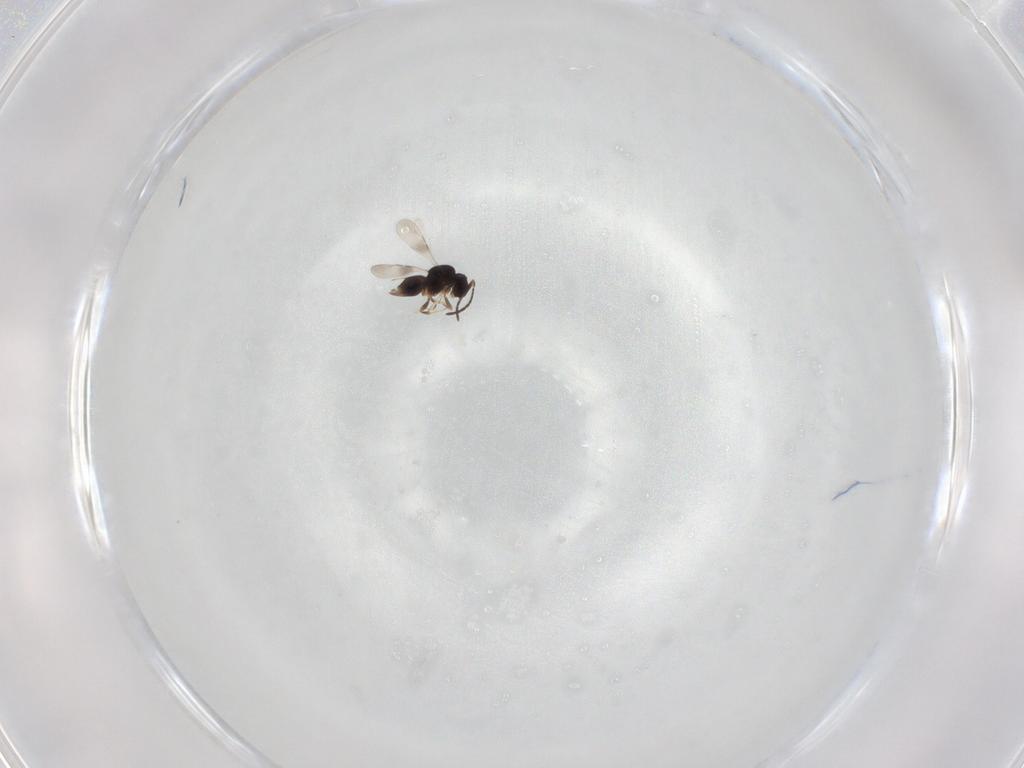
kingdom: Animalia
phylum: Arthropoda
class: Insecta
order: Hymenoptera
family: Ceraphronidae
